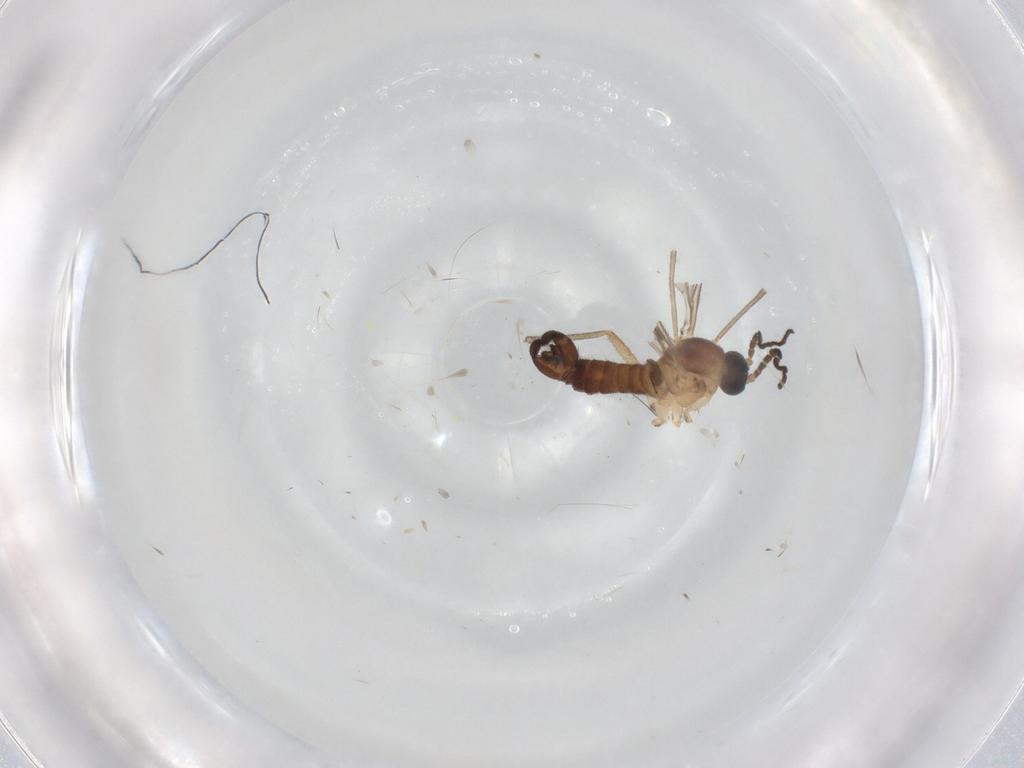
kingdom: Animalia
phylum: Arthropoda
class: Insecta
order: Diptera
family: Sciaridae
